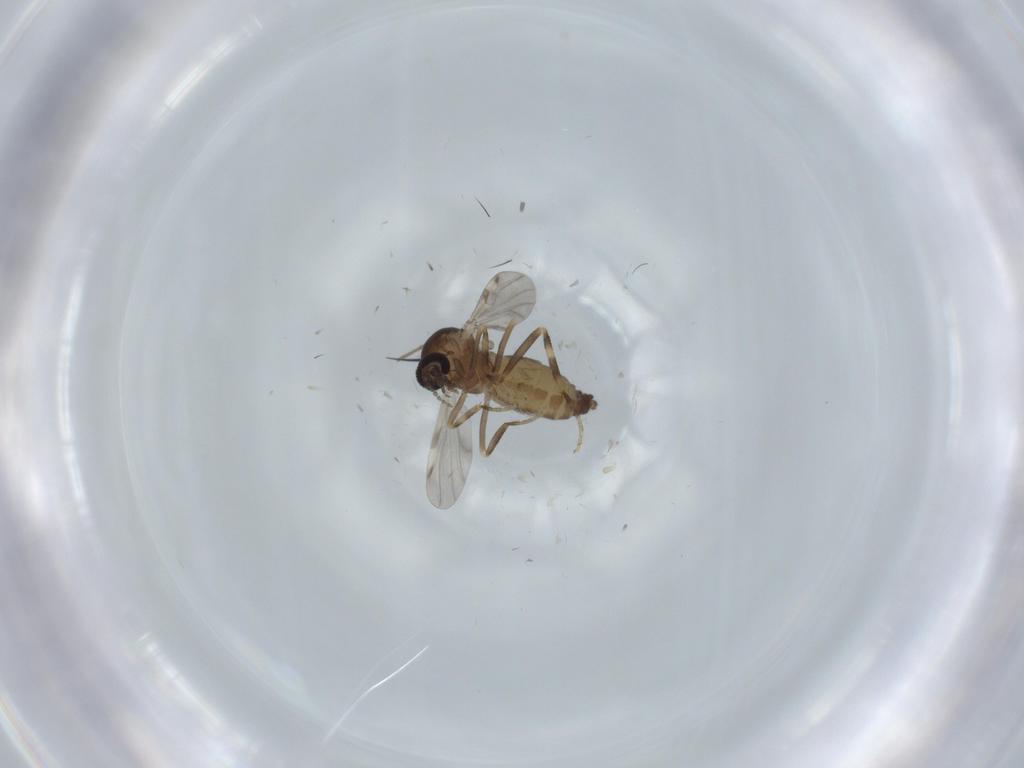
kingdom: Animalia
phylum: Arthropoda
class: Insecta
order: Diptera
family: Ceratopogonidae
